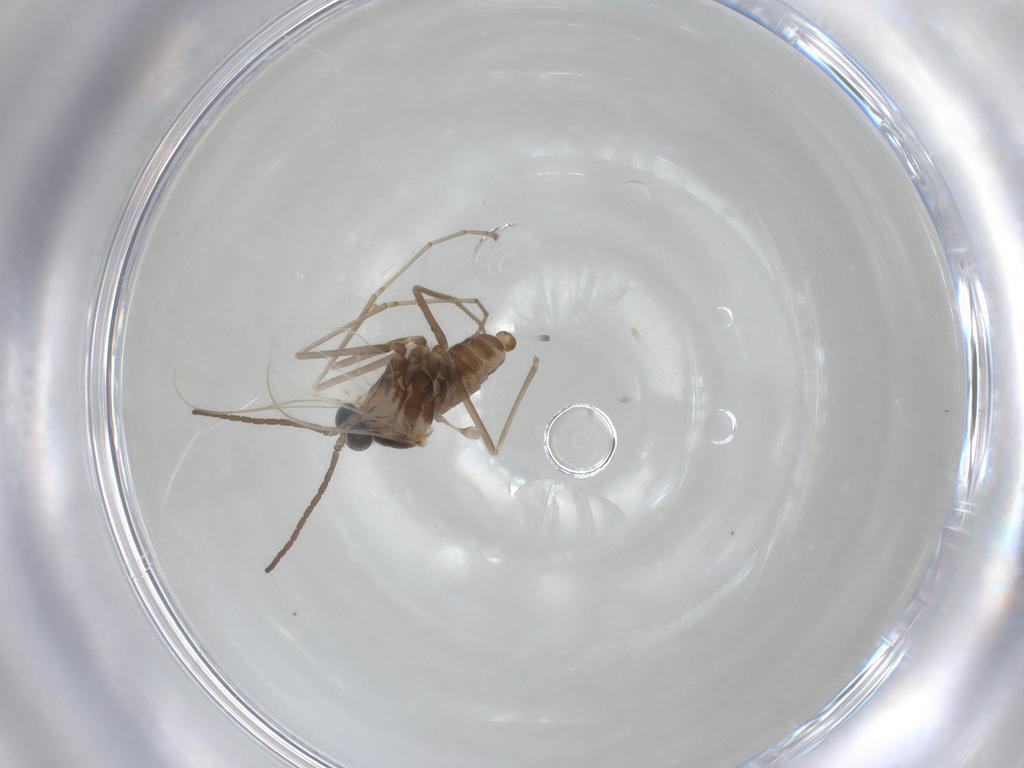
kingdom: Animalia
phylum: Arthropoda
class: Insecta
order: Diptera
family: Cecidomyiidae
